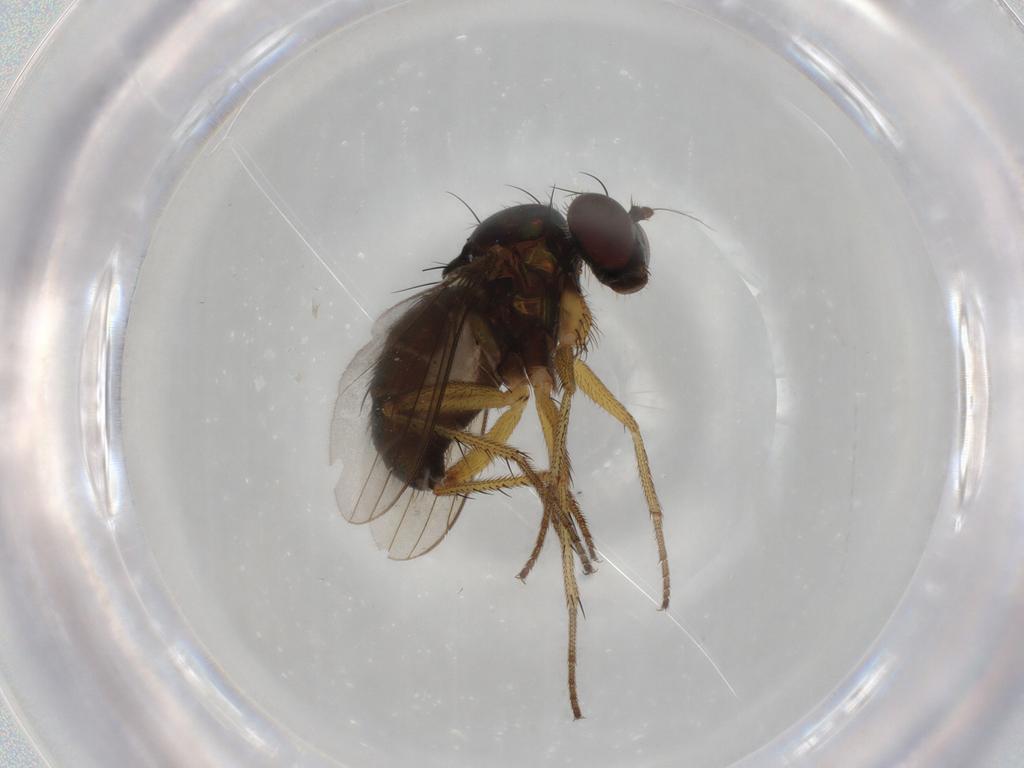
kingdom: Animalia
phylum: Arthropoda
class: Insecta
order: Diptera
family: Dolichopodidae
